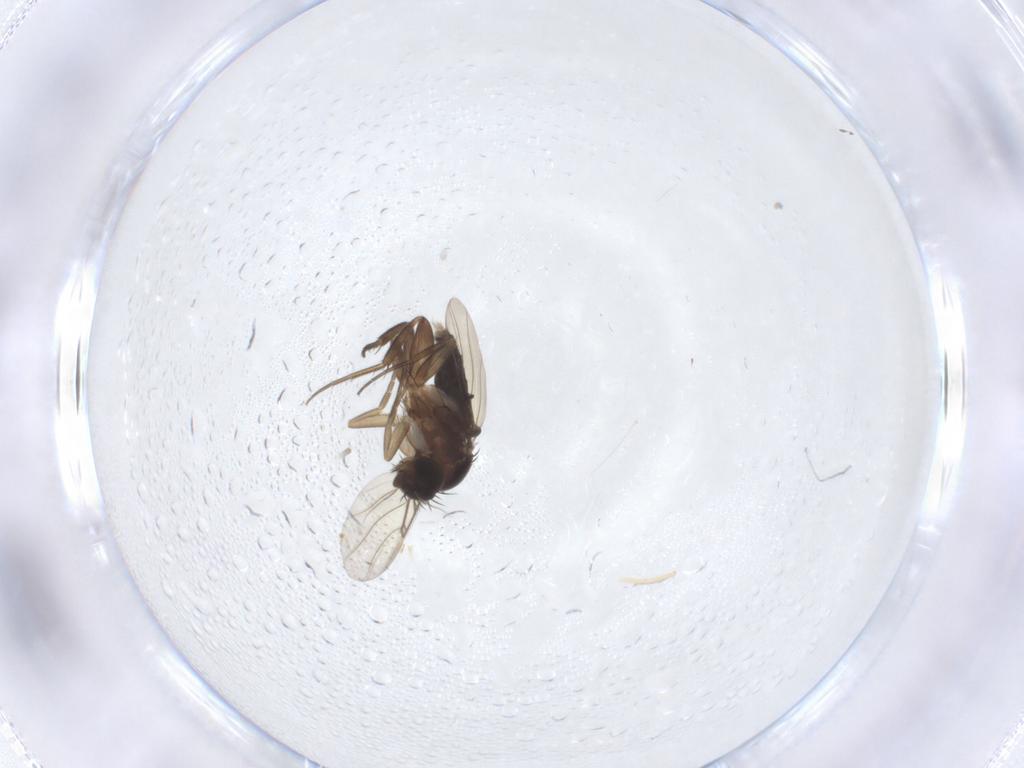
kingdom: Animalia
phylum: Arthropoda
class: Insecta
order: Diptera
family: Phoridae
